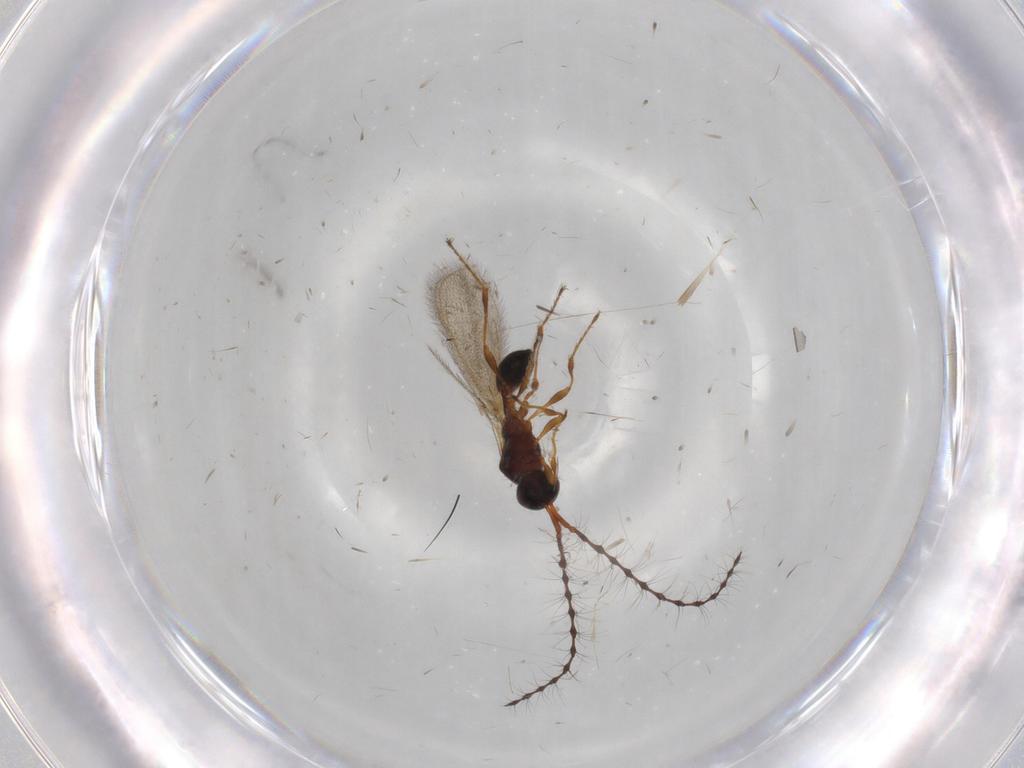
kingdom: Animalia
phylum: Arthropoda
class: Insecta
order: Hymenoptera
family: Diapriidae
